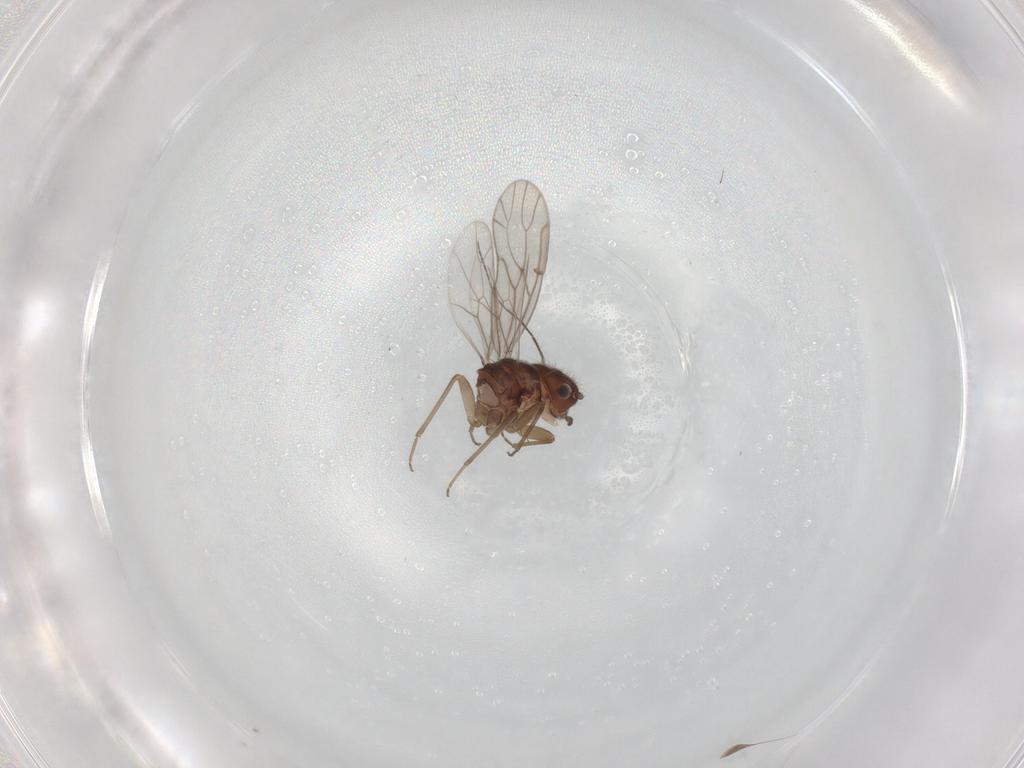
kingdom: Animalia
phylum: Arthropoda
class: Insecta
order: Psocodea
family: Ectopsocidae
